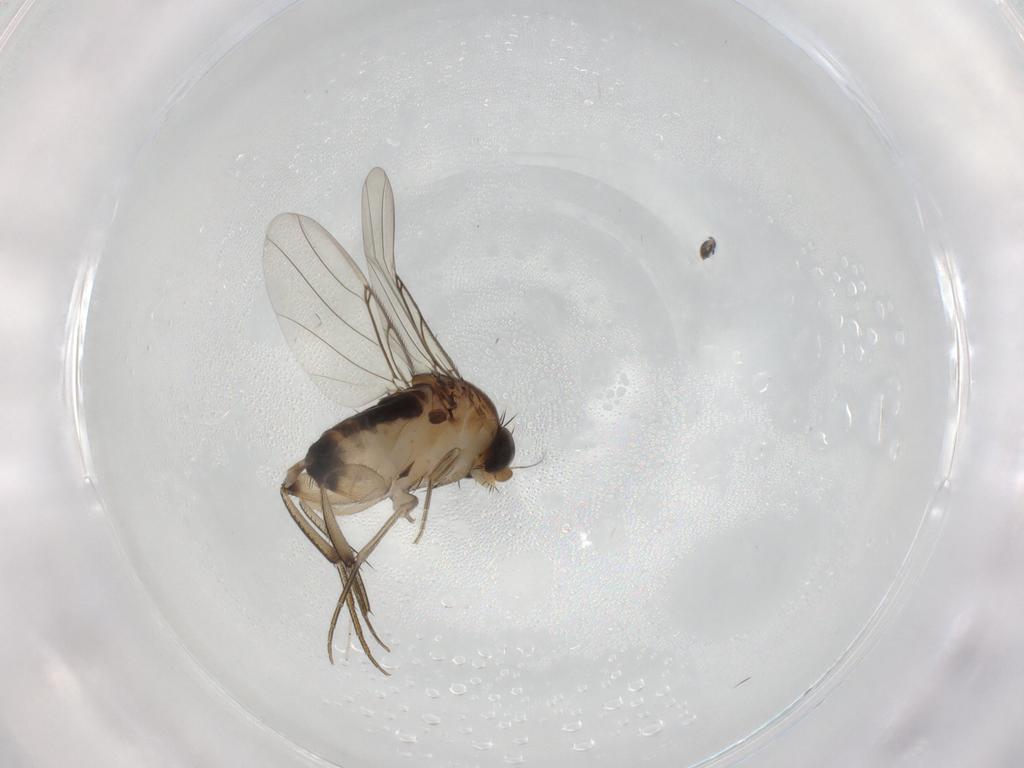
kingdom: Animalia
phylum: Arthropoda
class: Insecta
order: Diptera
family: Phoridae
